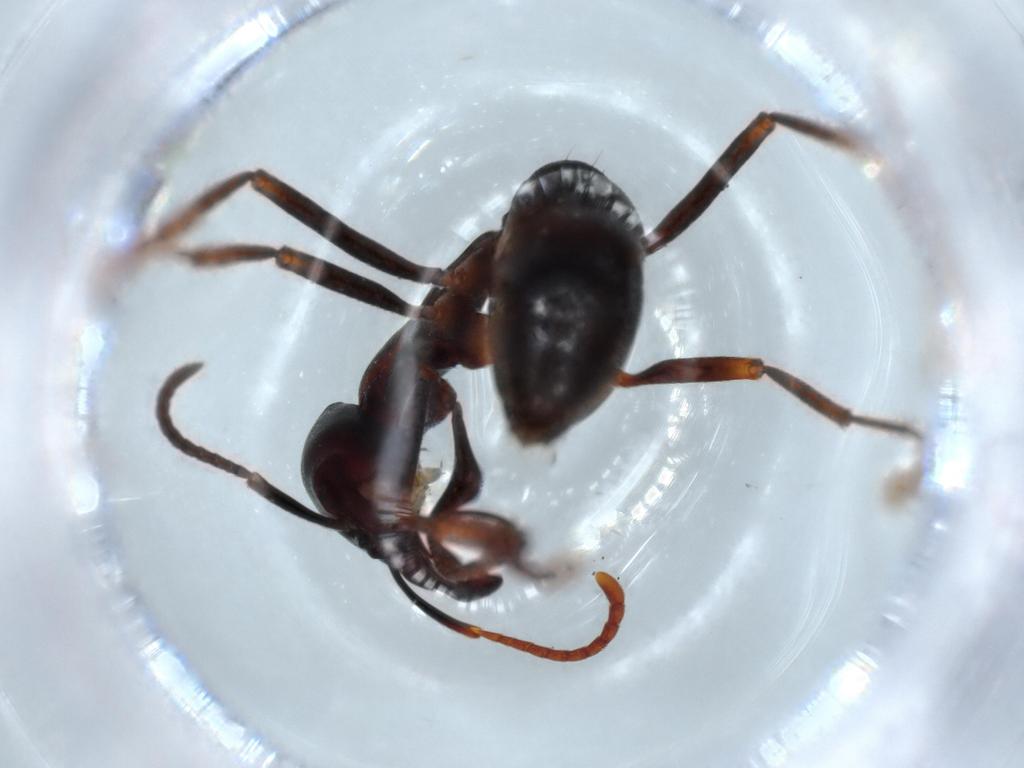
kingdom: Animalia
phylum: Arthropoda
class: Insecta
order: Hymenoptera
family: Formicidae
